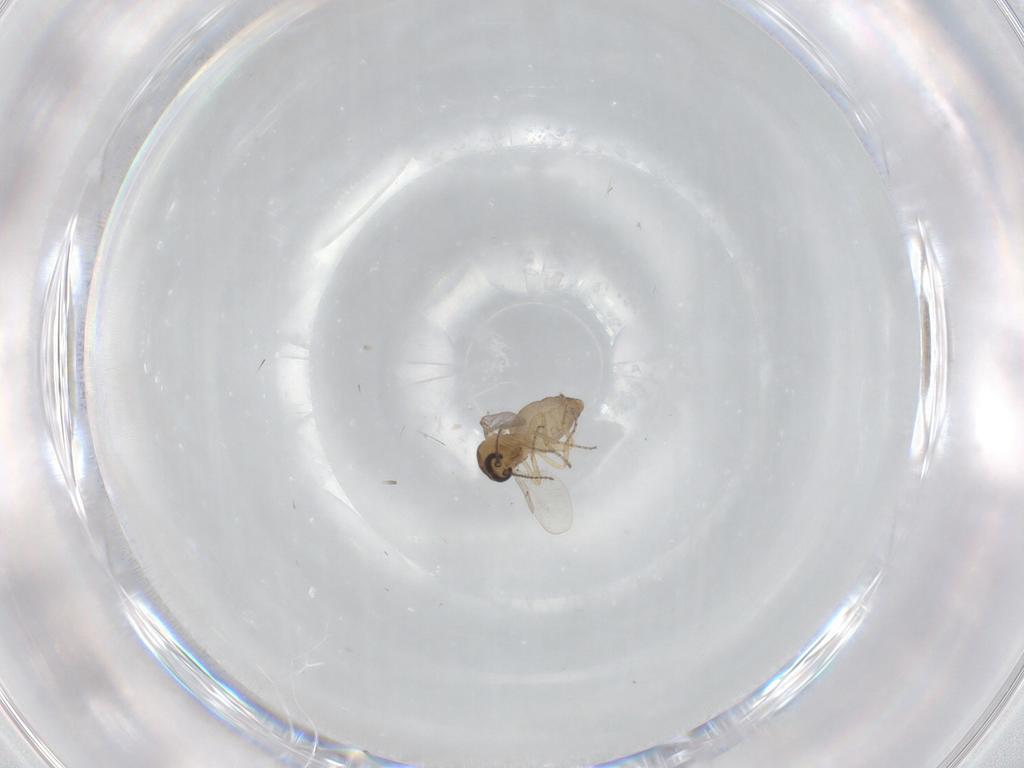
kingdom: Animalia
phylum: Arthropoda
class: Insecta
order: Diptera
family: Ceratopogonidae
